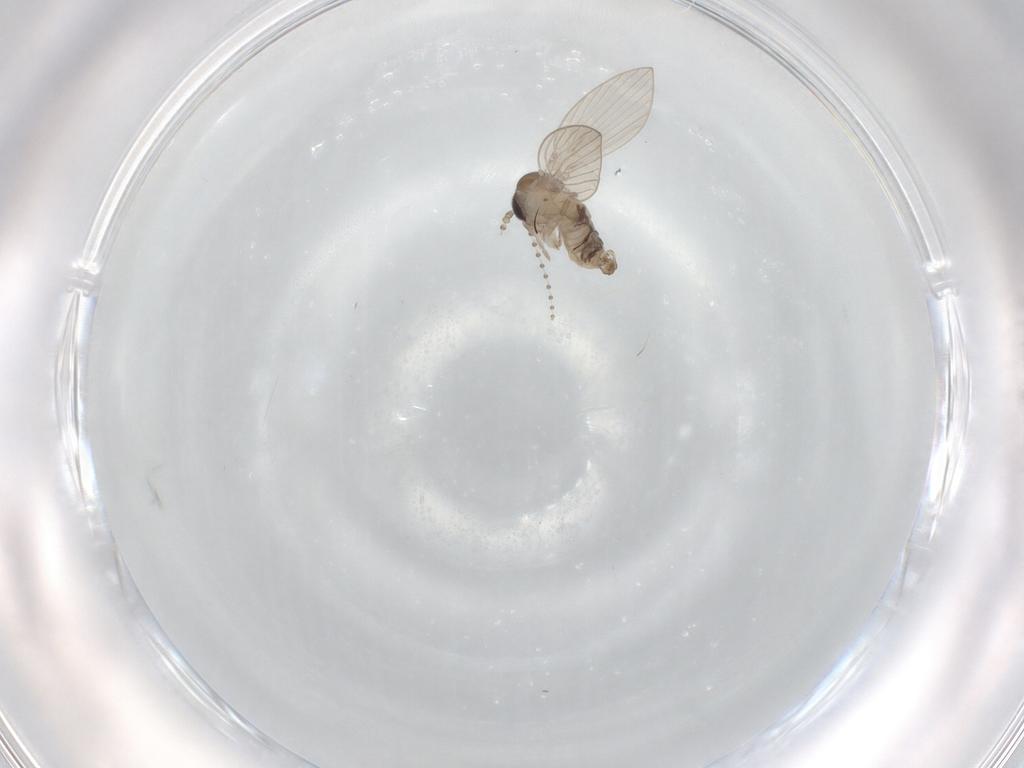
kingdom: Animalia
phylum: Arthropoda
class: Insecta
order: Diptera
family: Psychodidae
